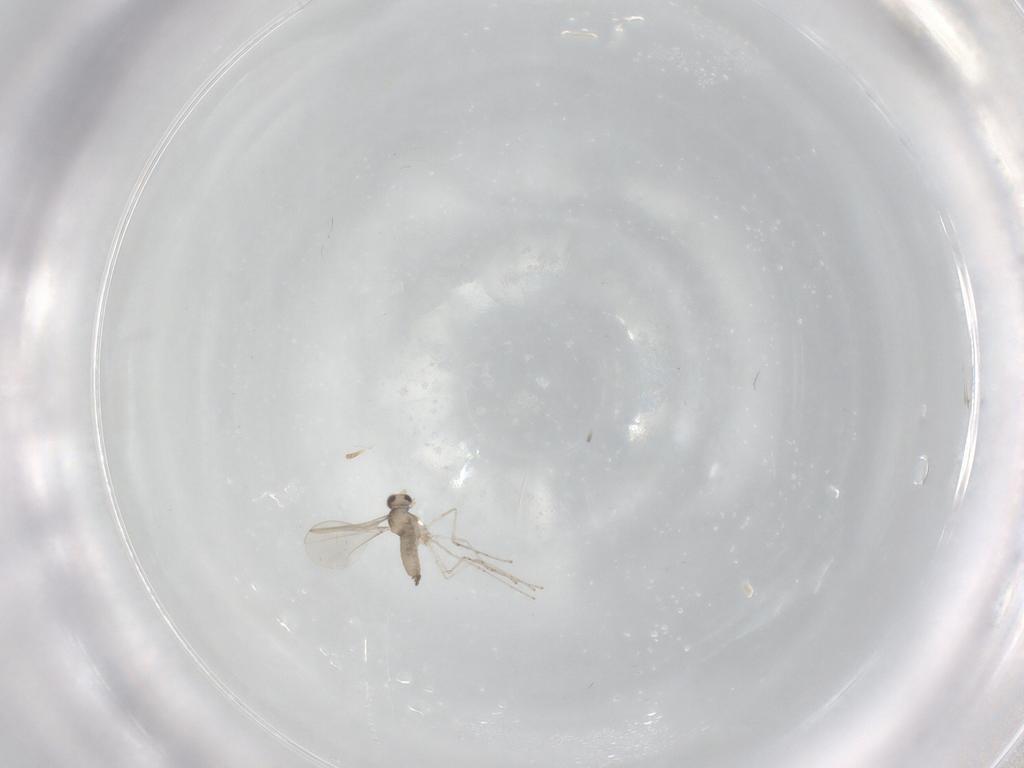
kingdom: Animalia
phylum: Arthropoda
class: Insecta
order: Diptera
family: Cecidomyiidae
